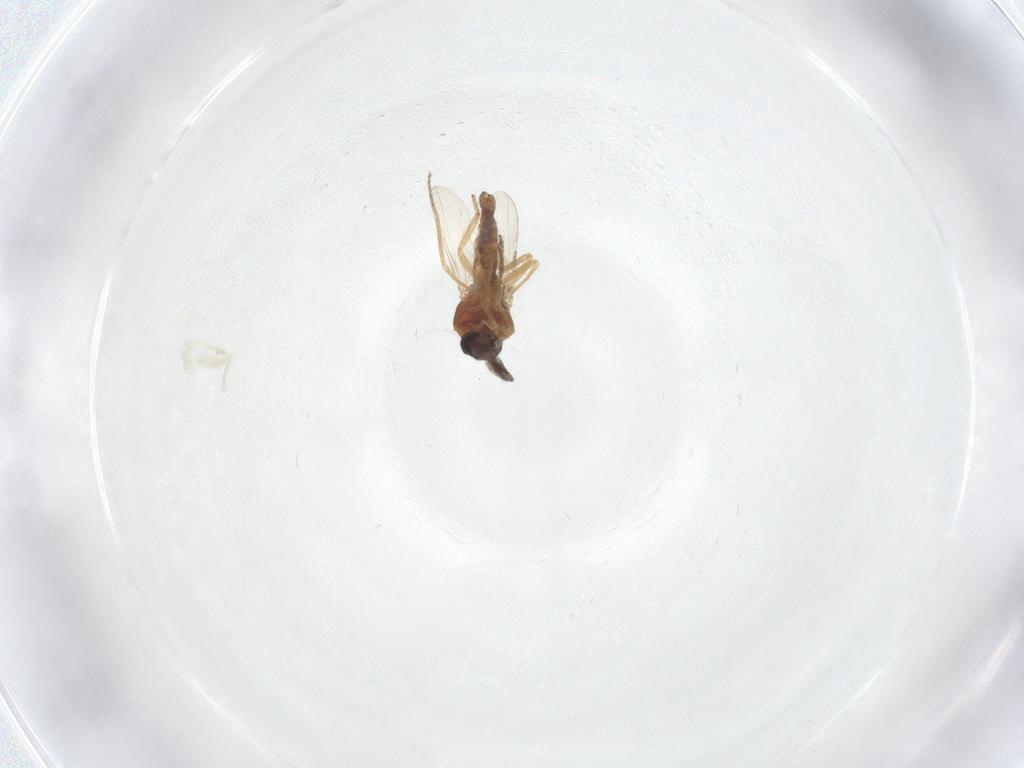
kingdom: Animalia
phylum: Arthropoda
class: Insecta
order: Diptera
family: Ceratopogonidae
